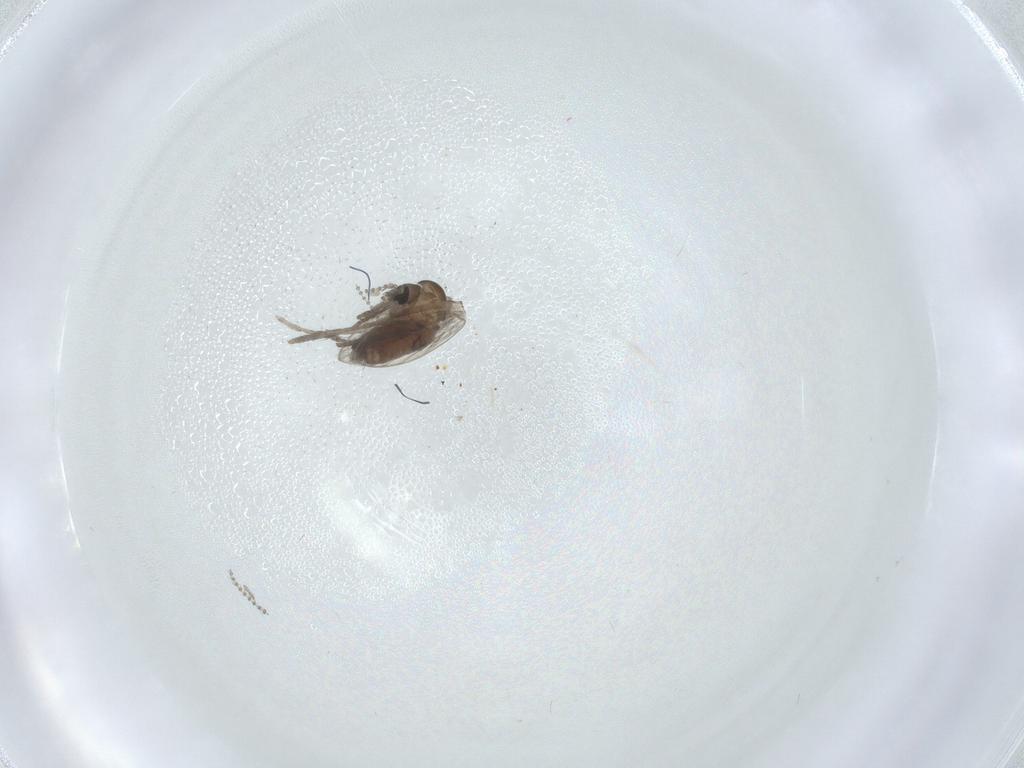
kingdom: Animalia
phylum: Arthropoda
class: Insecta
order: Diptera
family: Psychodidae
